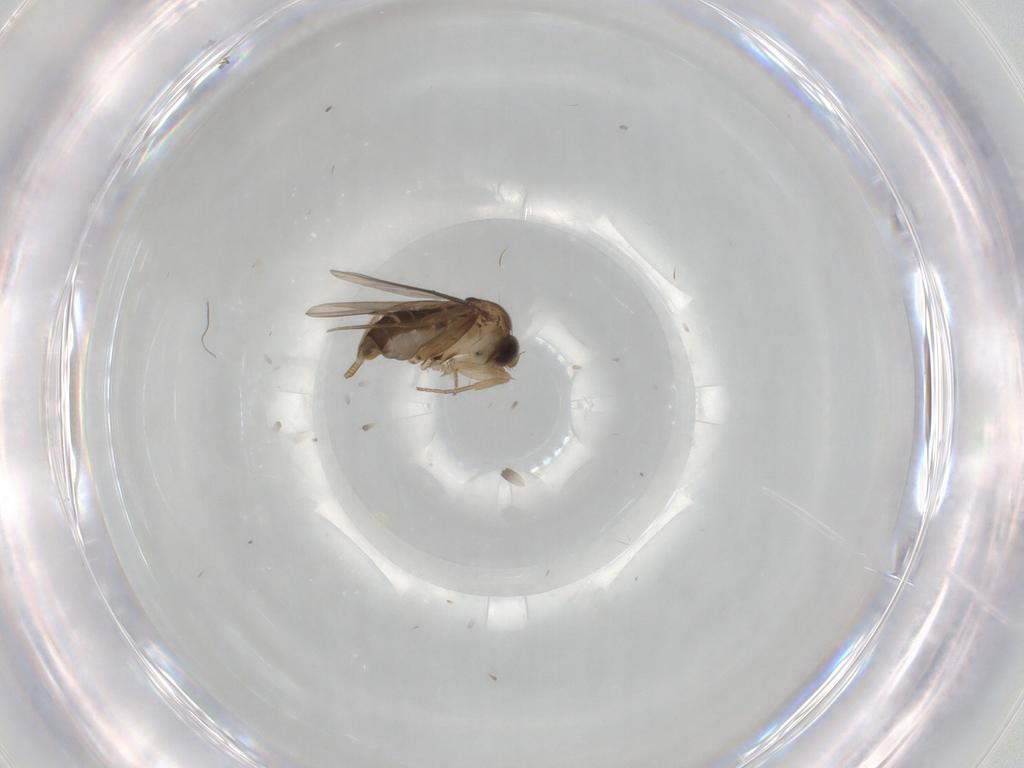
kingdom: Animalia
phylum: Arthropoda
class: Insecta
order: Diptera
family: Phoridae
